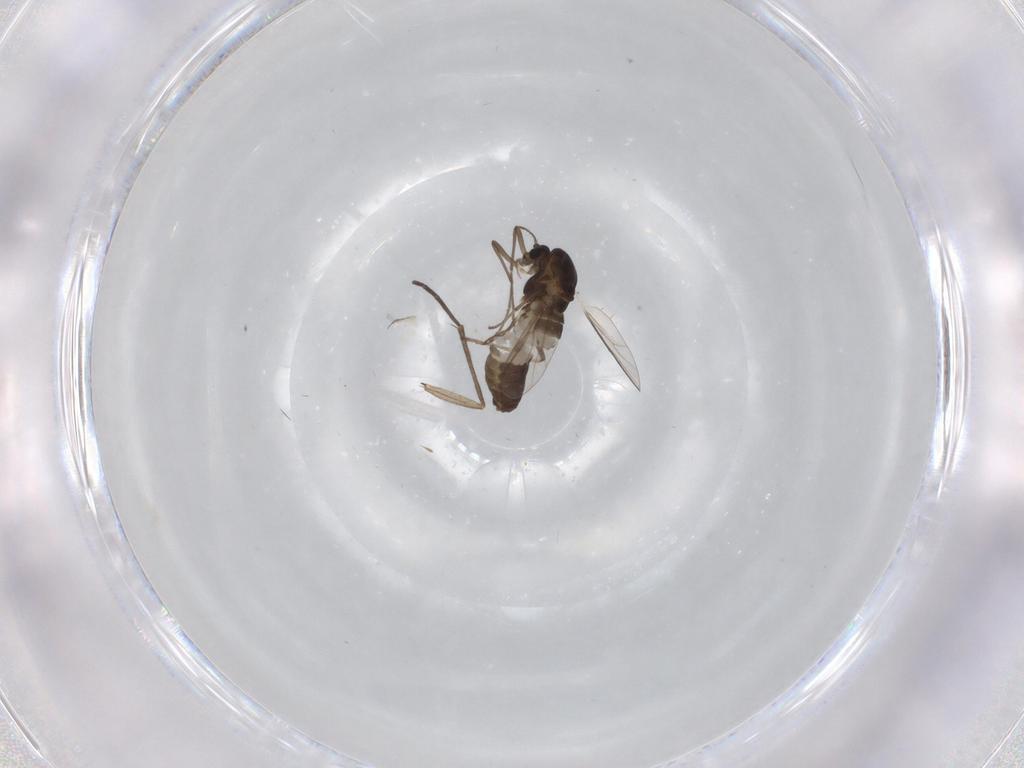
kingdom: Animalia
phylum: Arthropoda
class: Insecta
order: Diptera
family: Chironomidae
